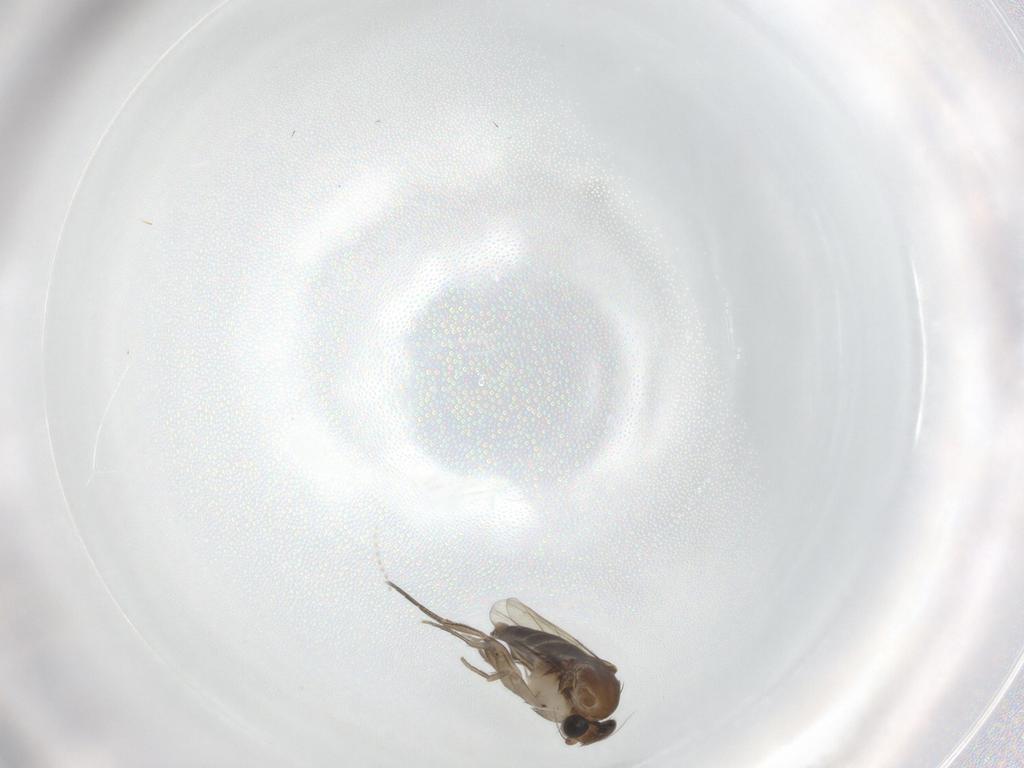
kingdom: Animalia
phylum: Arthropoda
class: Insecta
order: Diptera
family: Phoridae
